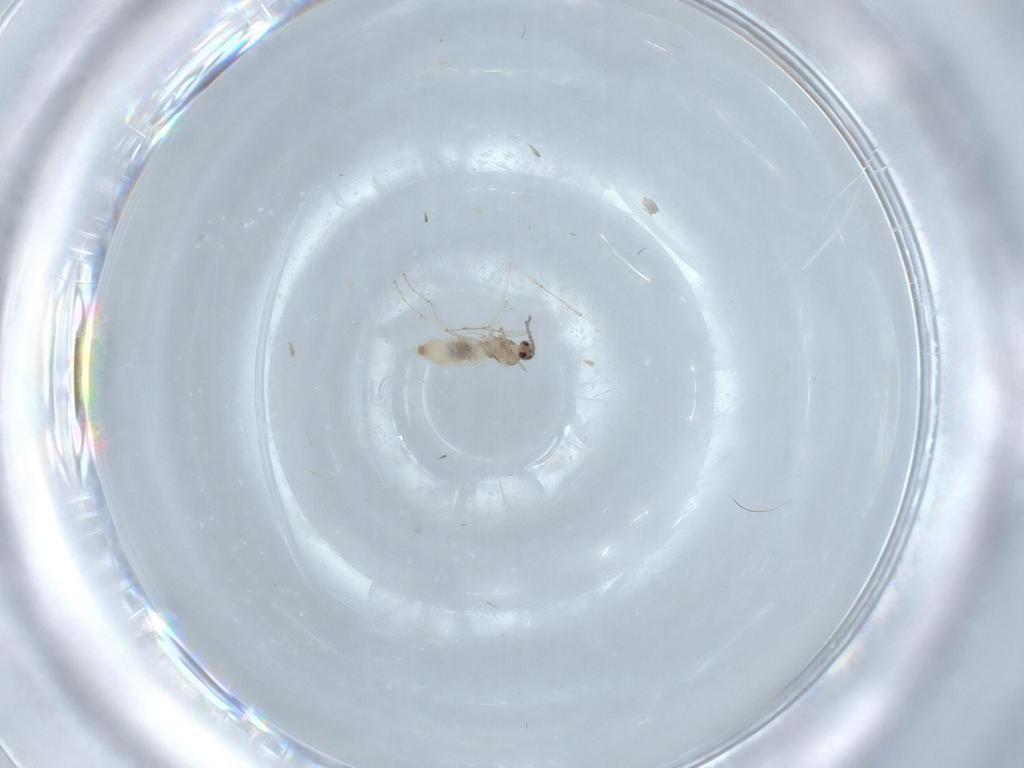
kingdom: Animalia
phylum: Arthropoda
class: Insecta
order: Diptera
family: Cecidomyiidae
